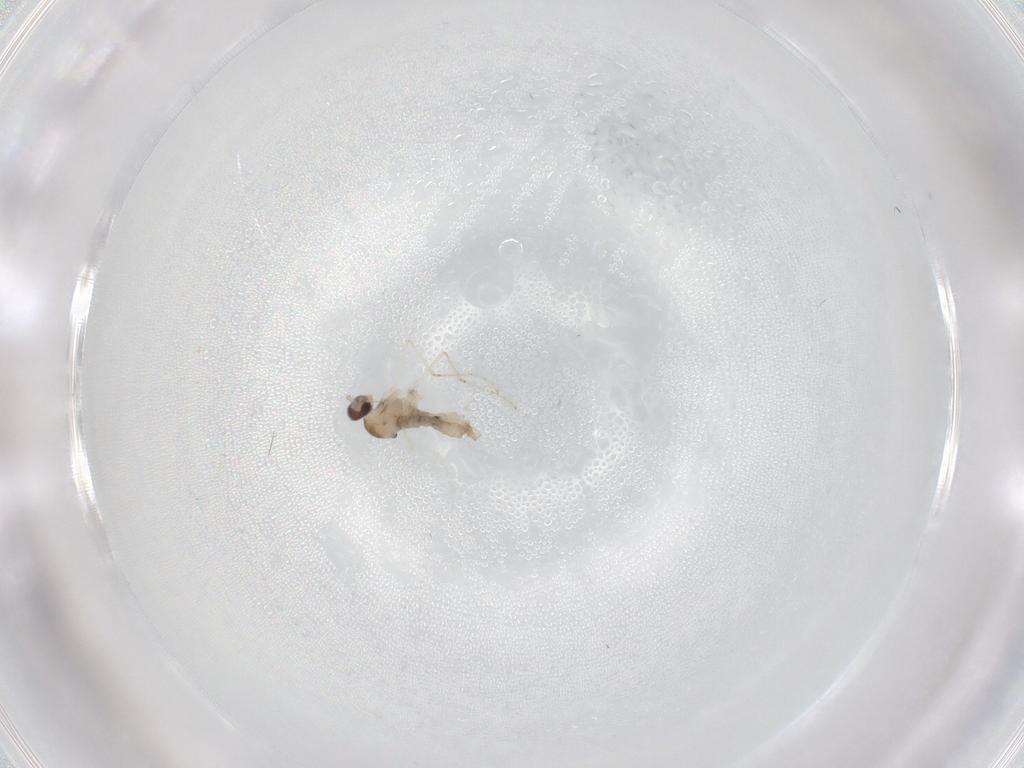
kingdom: Animalia
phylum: Arthropoda
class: Insecta
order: Diptera
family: Cecidomyiidae
